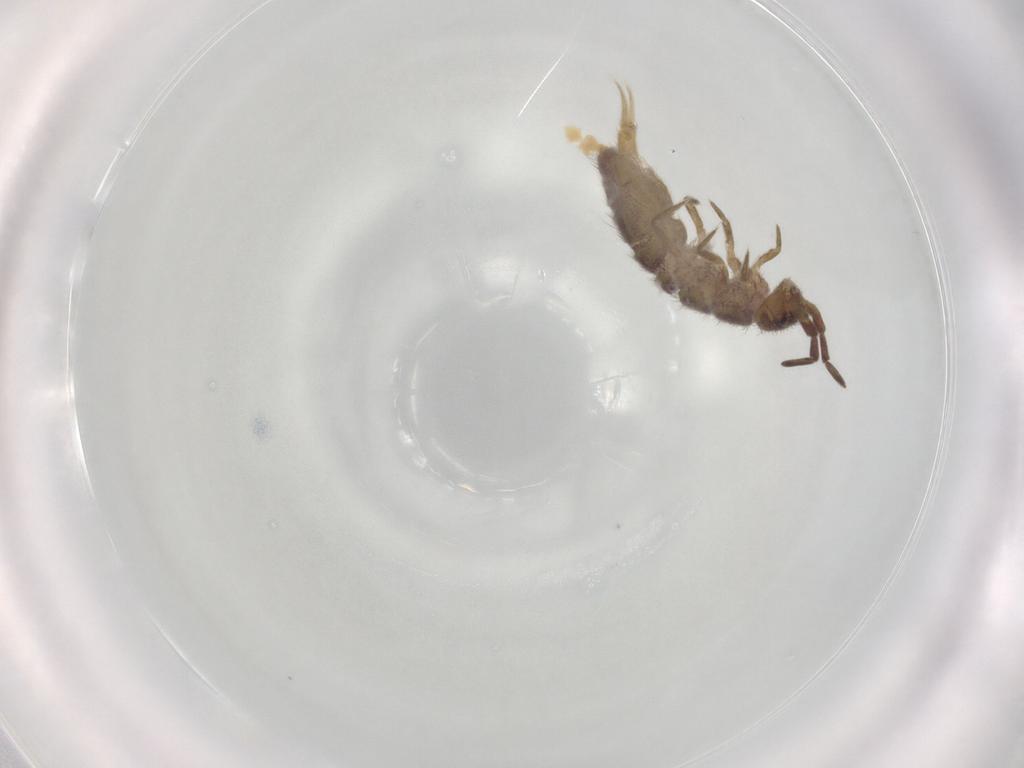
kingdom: Animalia
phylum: Arthropoda
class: Collembola
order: Entomobryomorpha
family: Isotomidae
